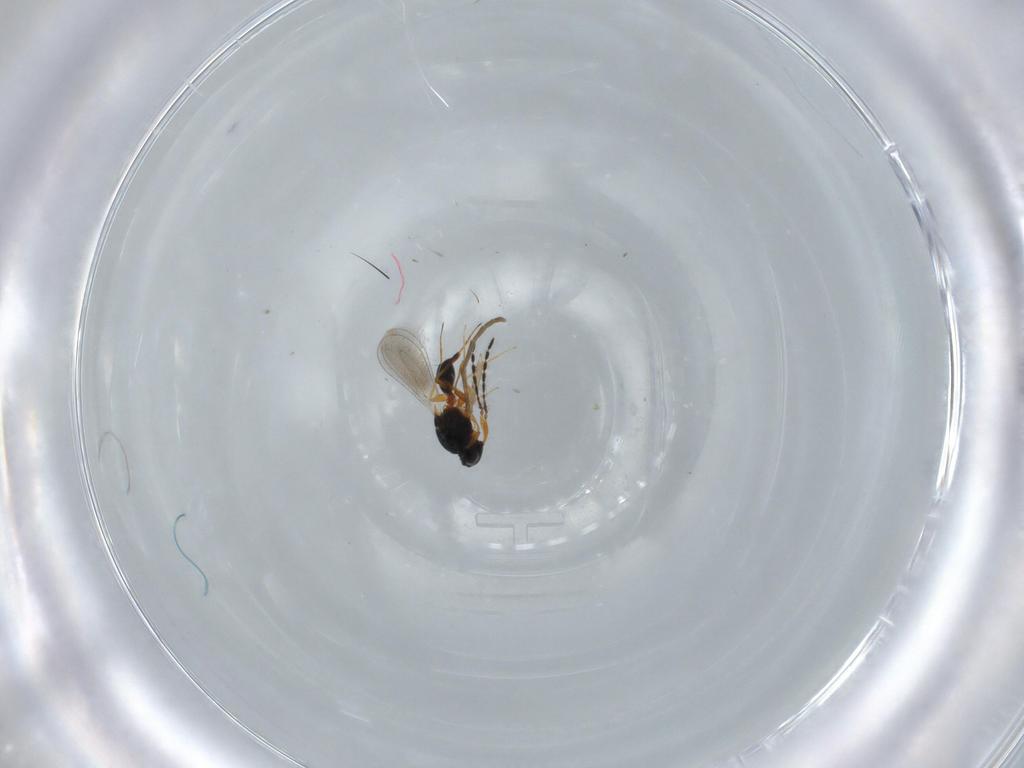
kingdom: Animalia
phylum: Arthropoda
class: Insecta
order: Diptera
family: Psychodidae
